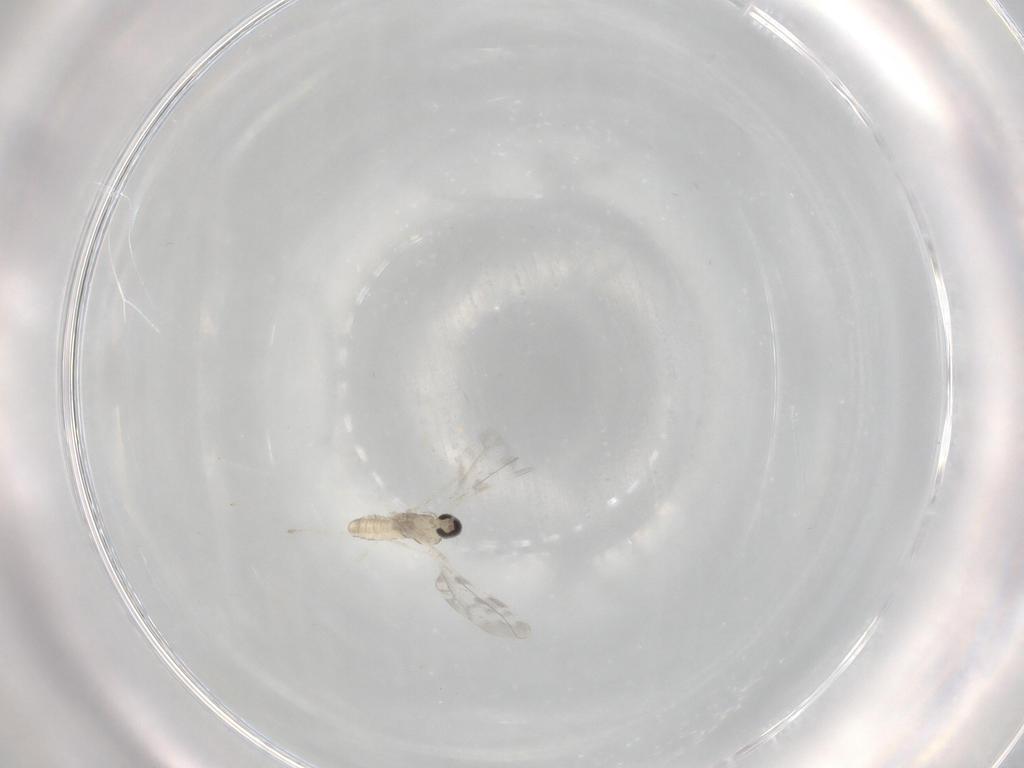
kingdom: Animalia
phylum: Arthropoda
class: Insecta
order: Diptera
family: Cecidomyiidae
